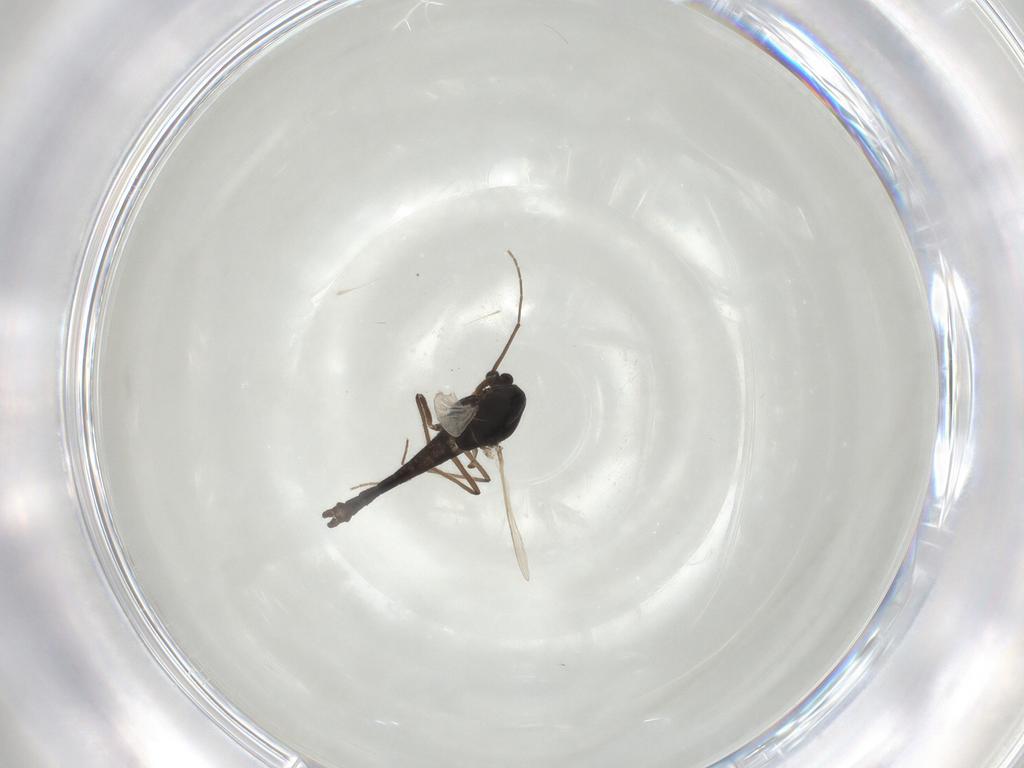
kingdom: Animalia
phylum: Arthropoda
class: Insecta
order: Diptera
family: Chironomidae
